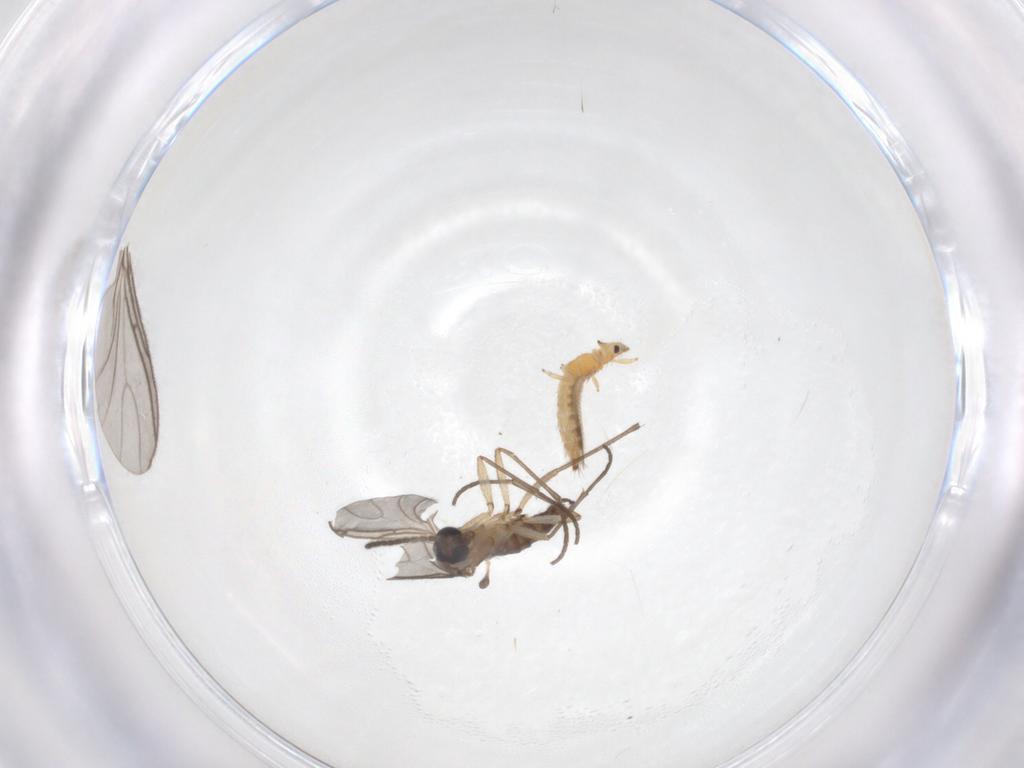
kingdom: Animalia
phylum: Arthropoda
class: Insecta
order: Diptera
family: Sciaridae
